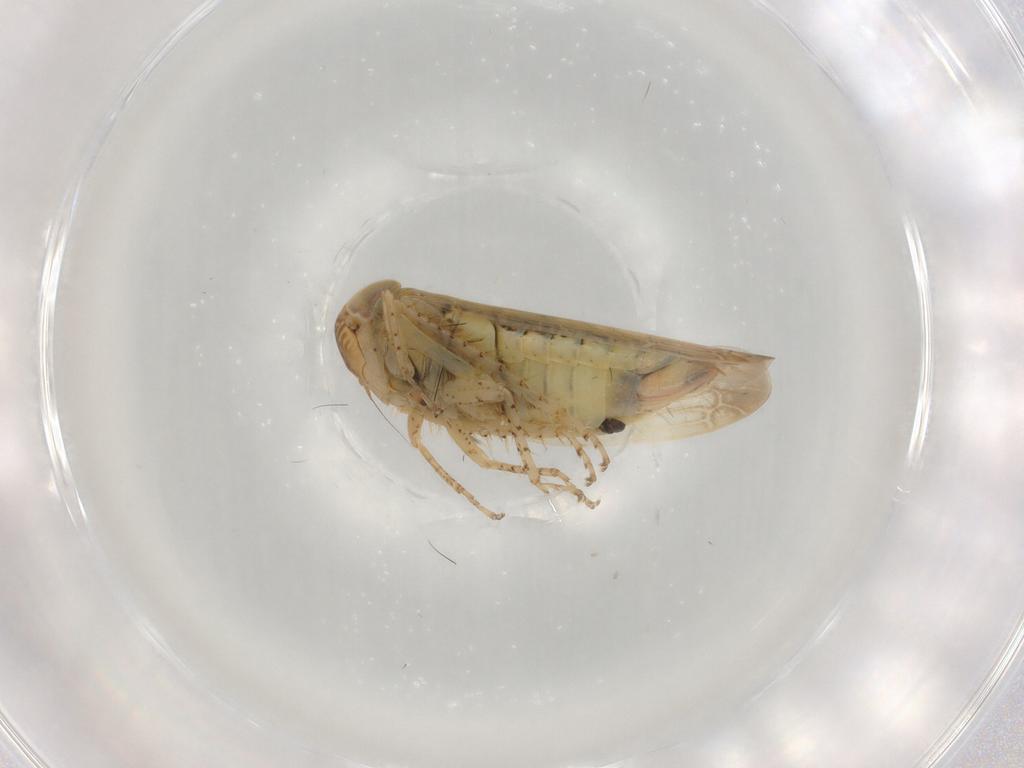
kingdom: Animalia
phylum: Arthropoda
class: Insecta
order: Hemiptera
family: Cicadellidae
